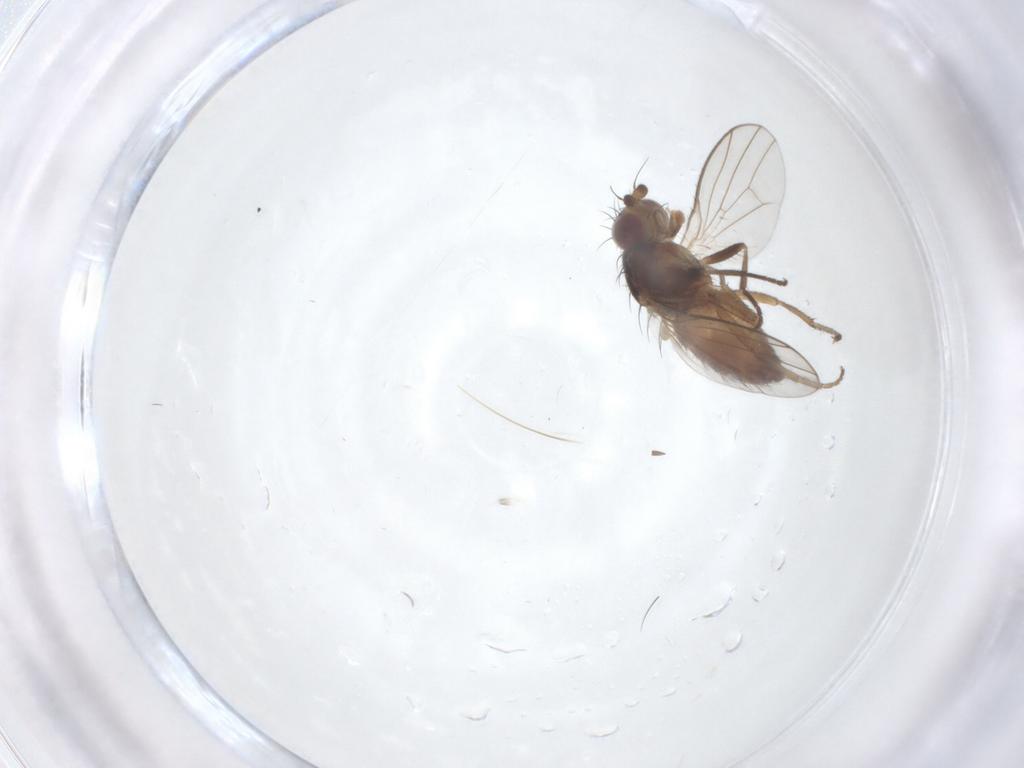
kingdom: Animalia
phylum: Arthropoda
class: Insecta
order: Diptera
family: Heleomyzidae
